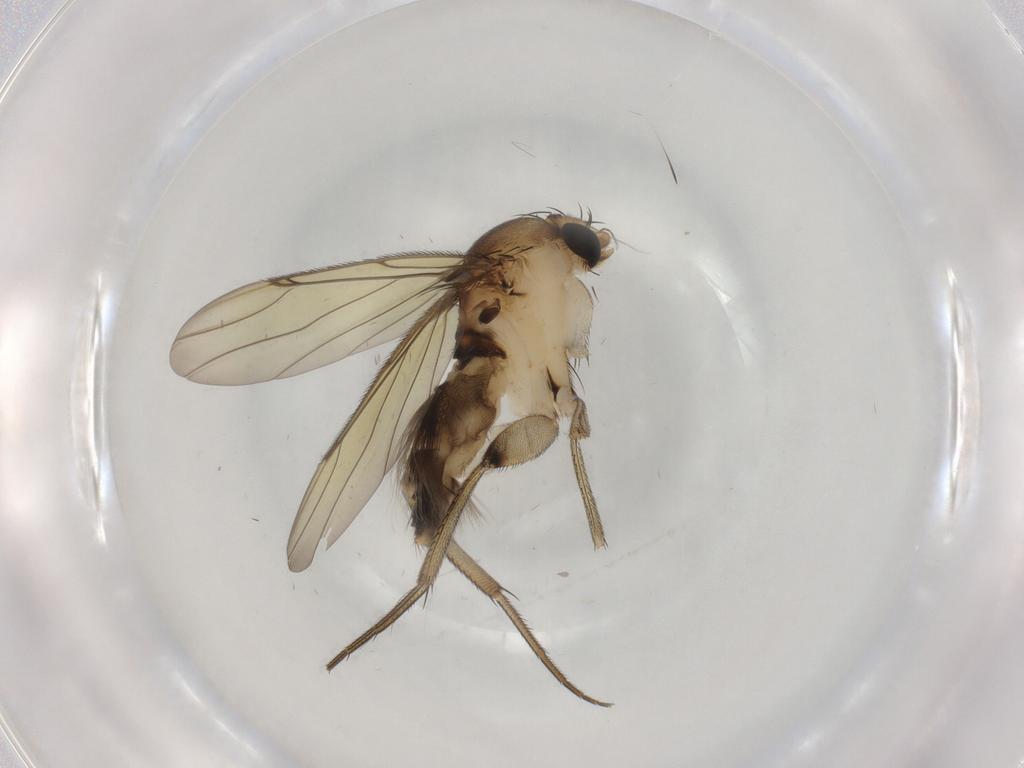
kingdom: Animalia
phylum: Arthropoda
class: Insecta
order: Diptera
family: Phoridae
